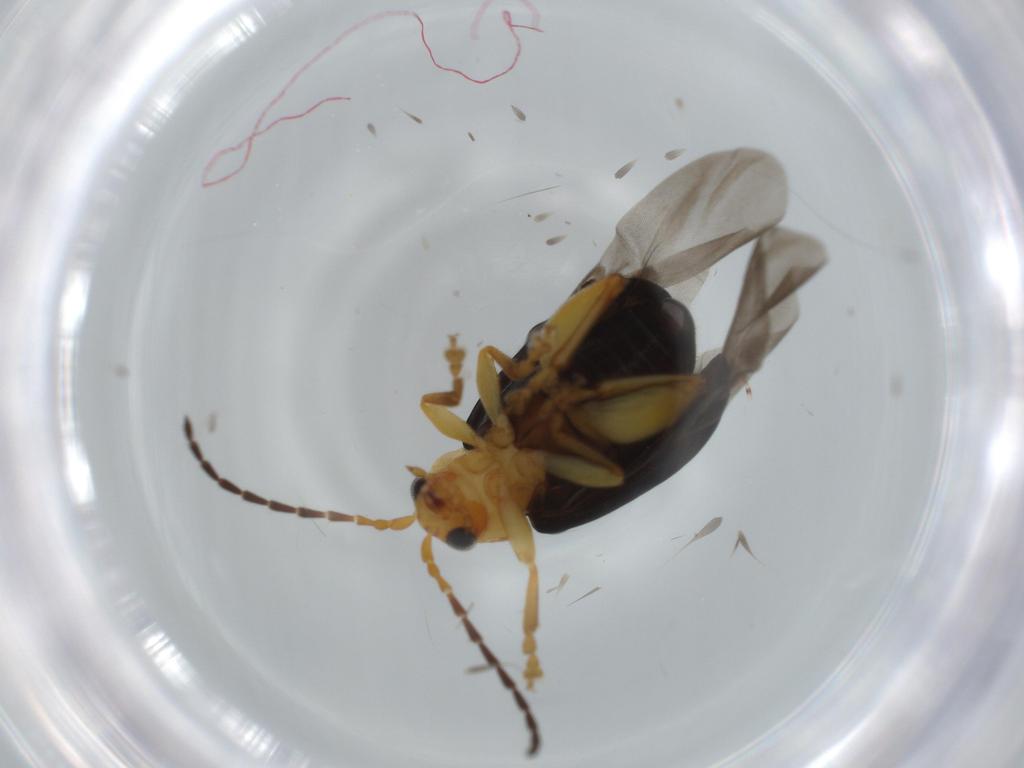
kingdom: Animalia
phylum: Arthropoda
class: Insecta
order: Coleoptera
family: Chrysomelidae
